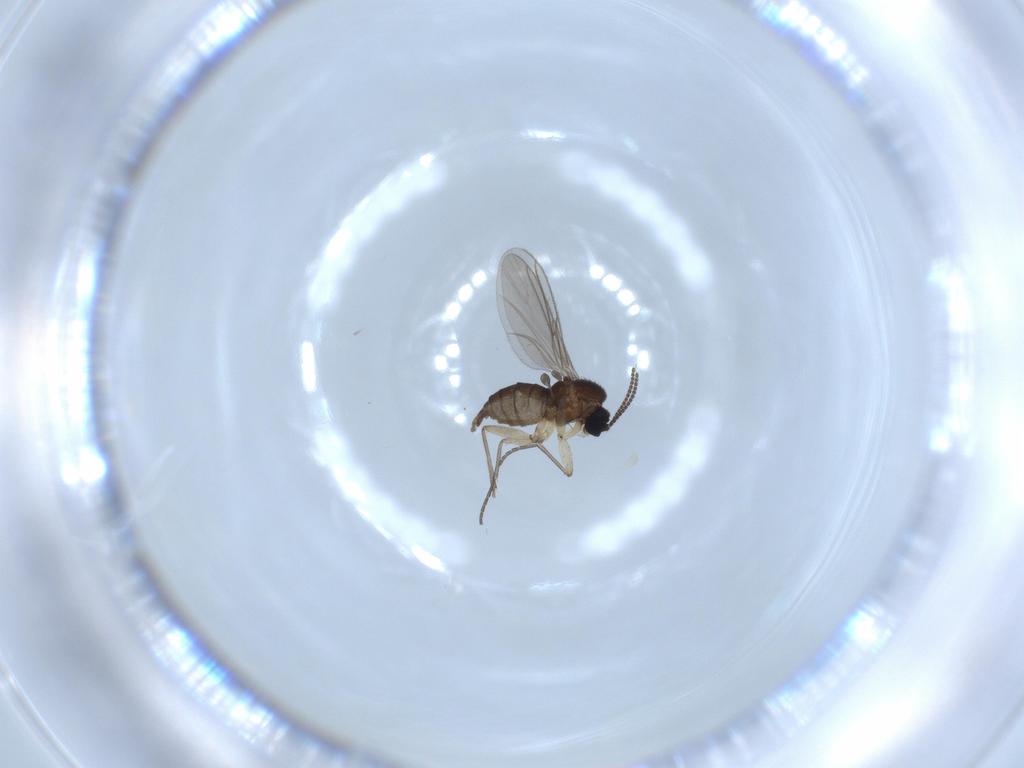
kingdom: Animalia
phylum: Arthropoda
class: Insecta
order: Diptera
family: Sciaridae
